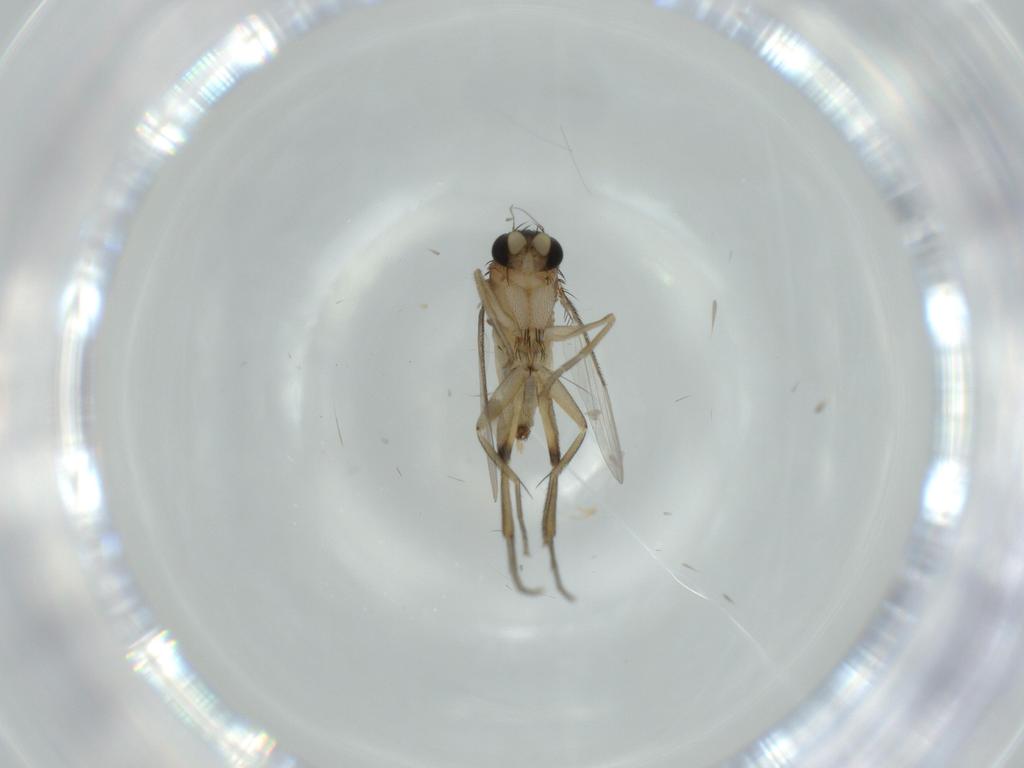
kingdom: Animalia
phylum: Arthropoda
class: Insecta
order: Diptera
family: Phoridae
